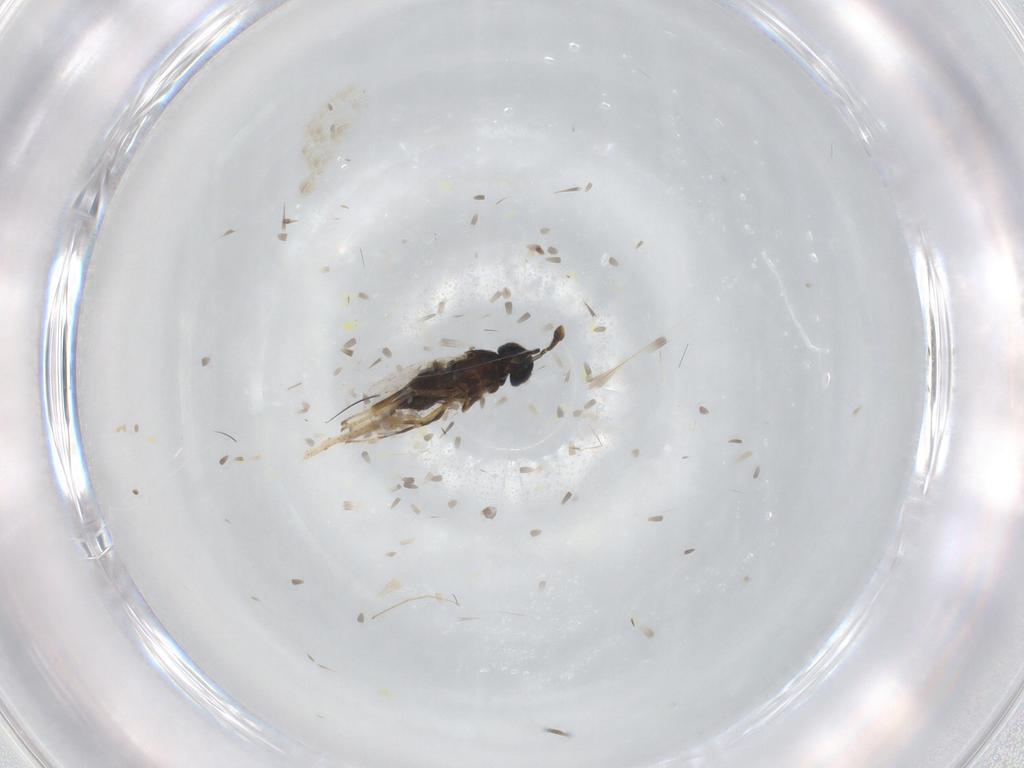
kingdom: Animalia
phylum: Arthropoda
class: Insecta
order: Hymenoptera
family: Encyrtidae
